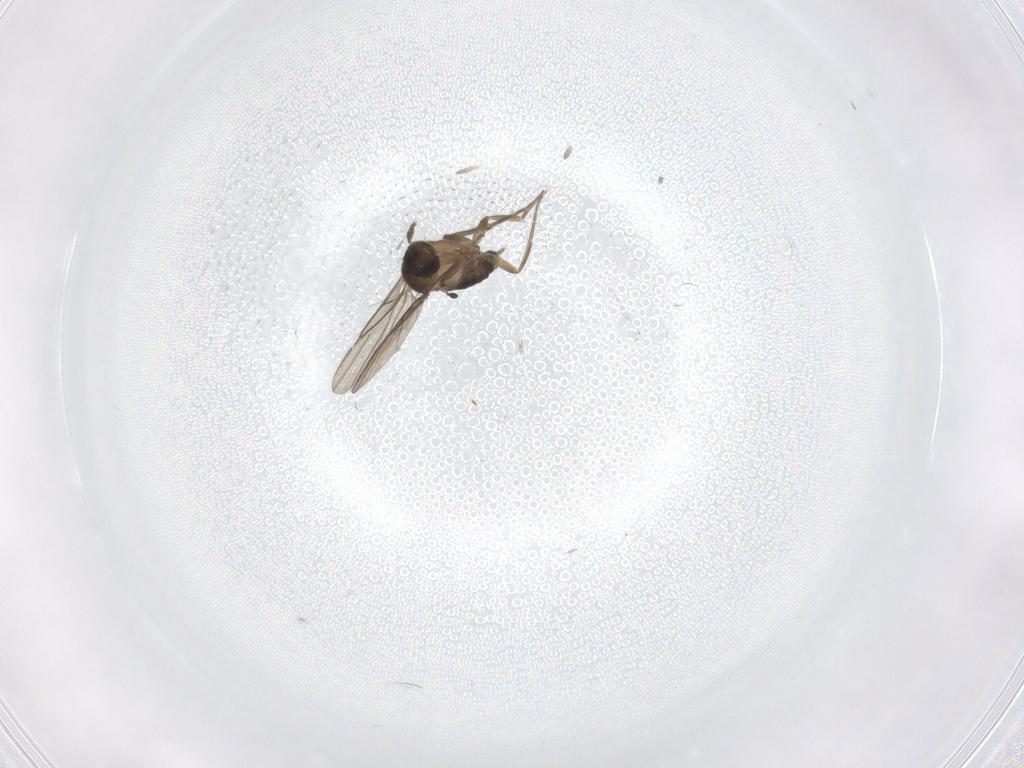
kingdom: Animalia
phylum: Arthropoda
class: Insecta
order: Diptera
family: Phoridae
